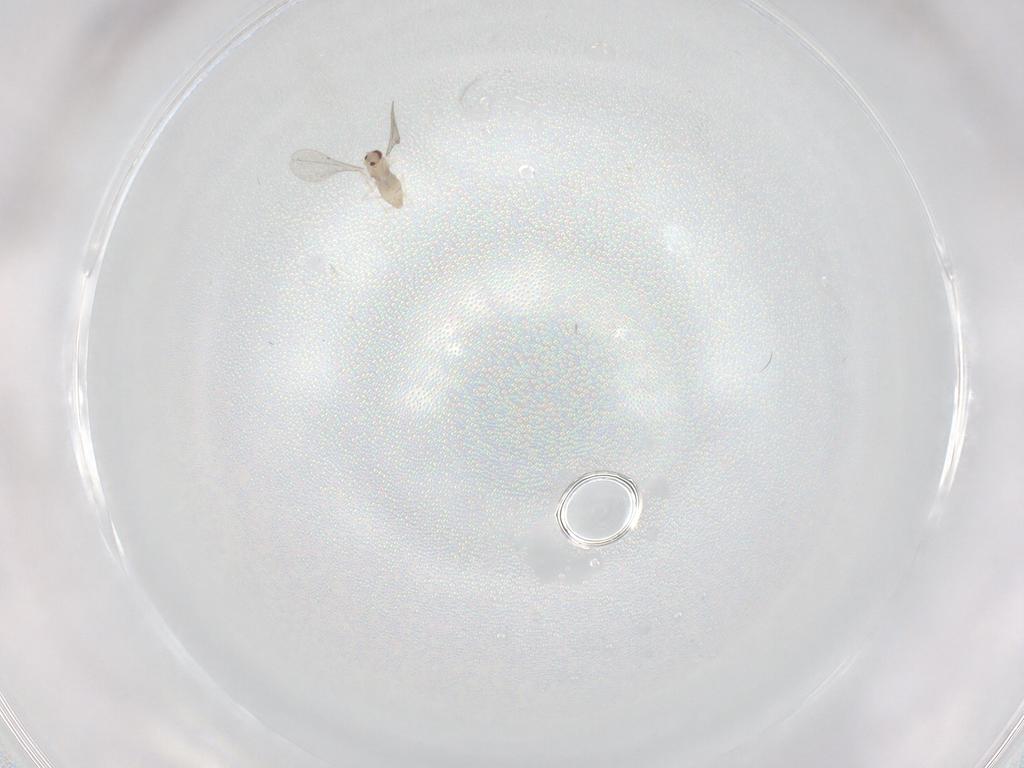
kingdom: Animalia
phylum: Arthropoda
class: Insecta
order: Diptera
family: Cecidomyiidae
